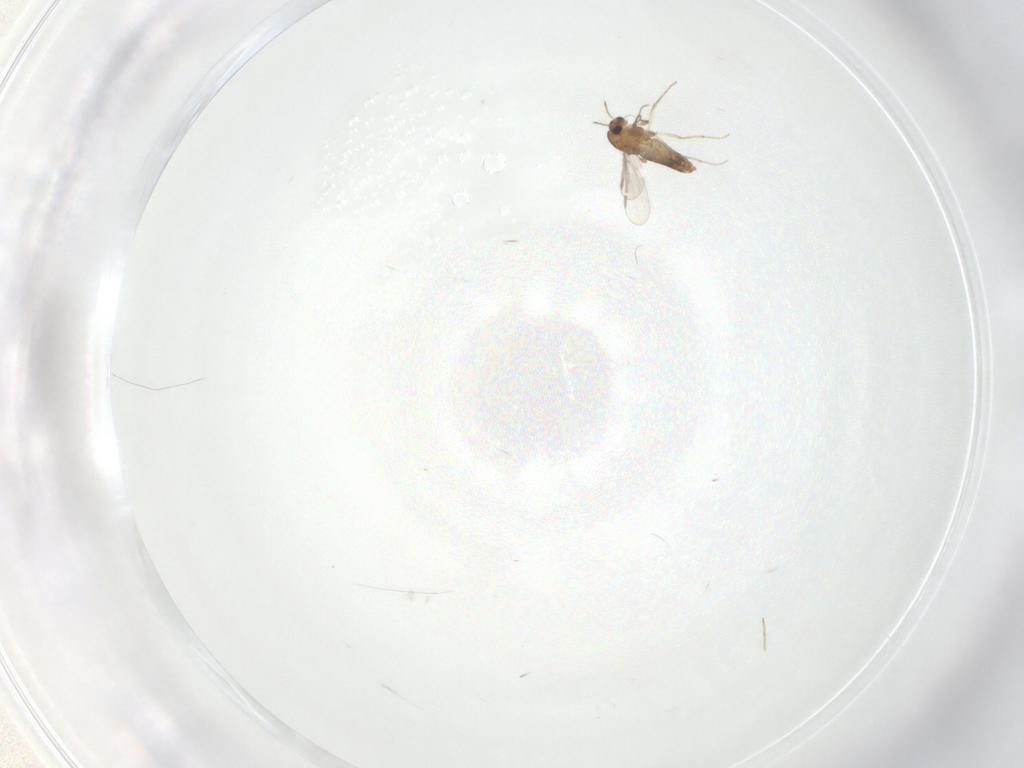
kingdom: Animalia
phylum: Arthropoda
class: Insecta
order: Diptera
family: Chironomidae
